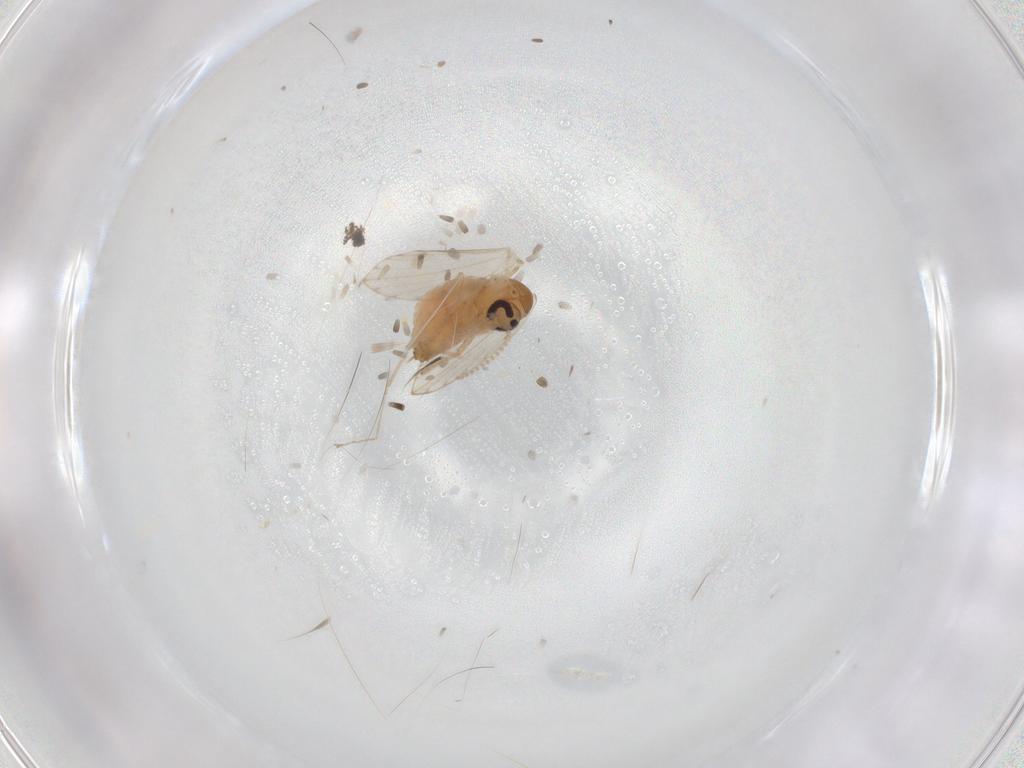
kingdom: Animalia
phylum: Arthropoda
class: Insecta
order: Diptera
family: Psychodidae
